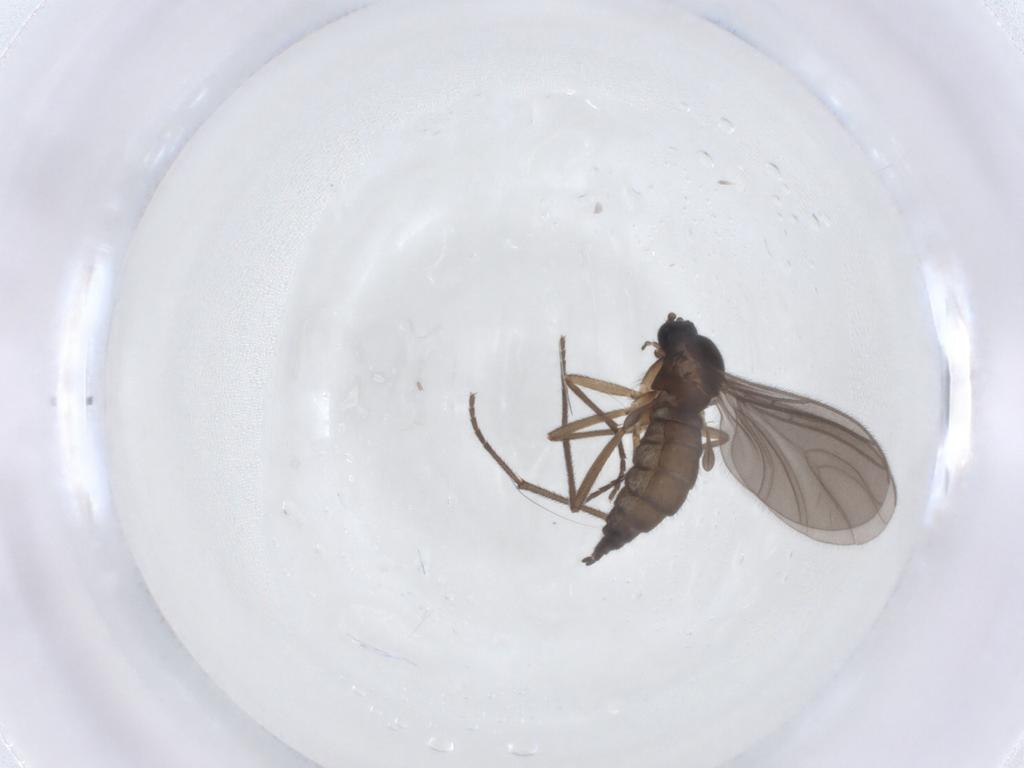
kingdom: Animalia
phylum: Arthropoda
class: Insecta
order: Diptera
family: Sciaridae
